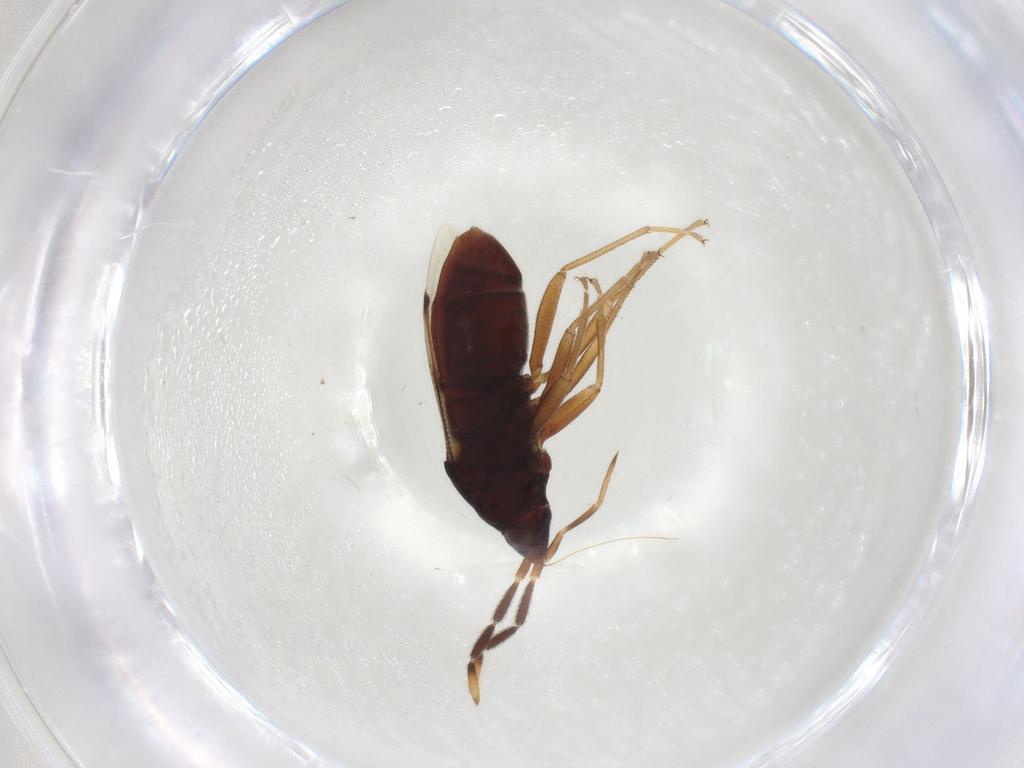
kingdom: Animalia
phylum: Arthropoda
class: Insecta
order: Hemiptera
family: Rhyparochromidae
